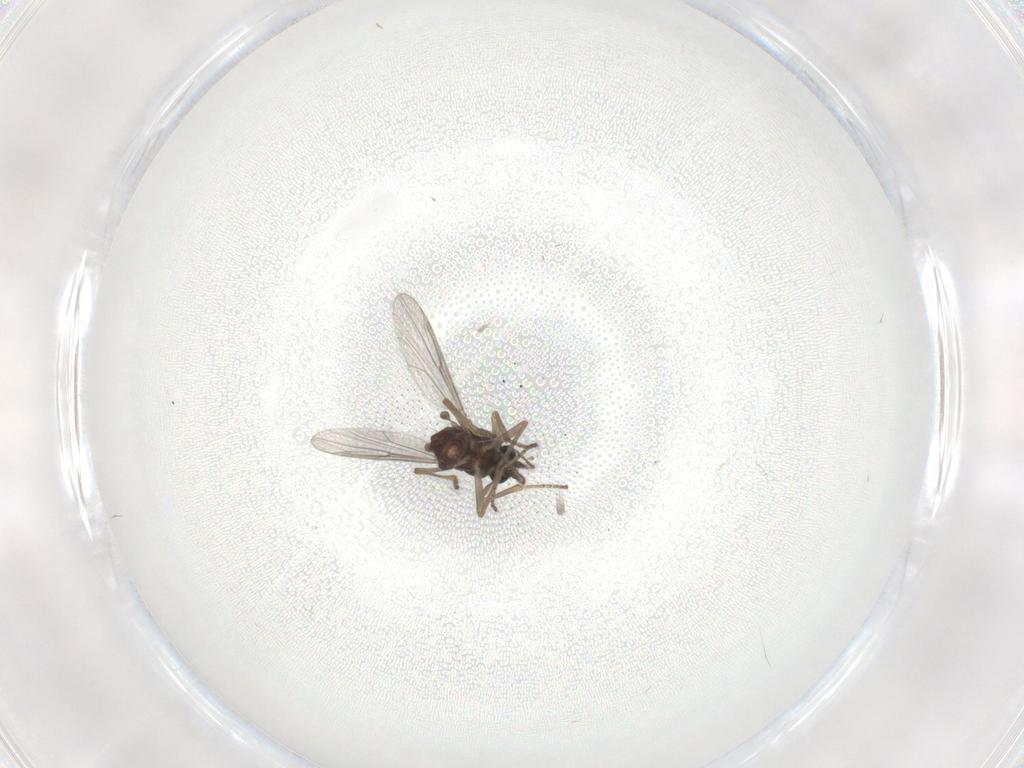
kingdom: Animalia
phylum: Arthropoda
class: Insecta
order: Diptera
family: Ceratopogonidae
